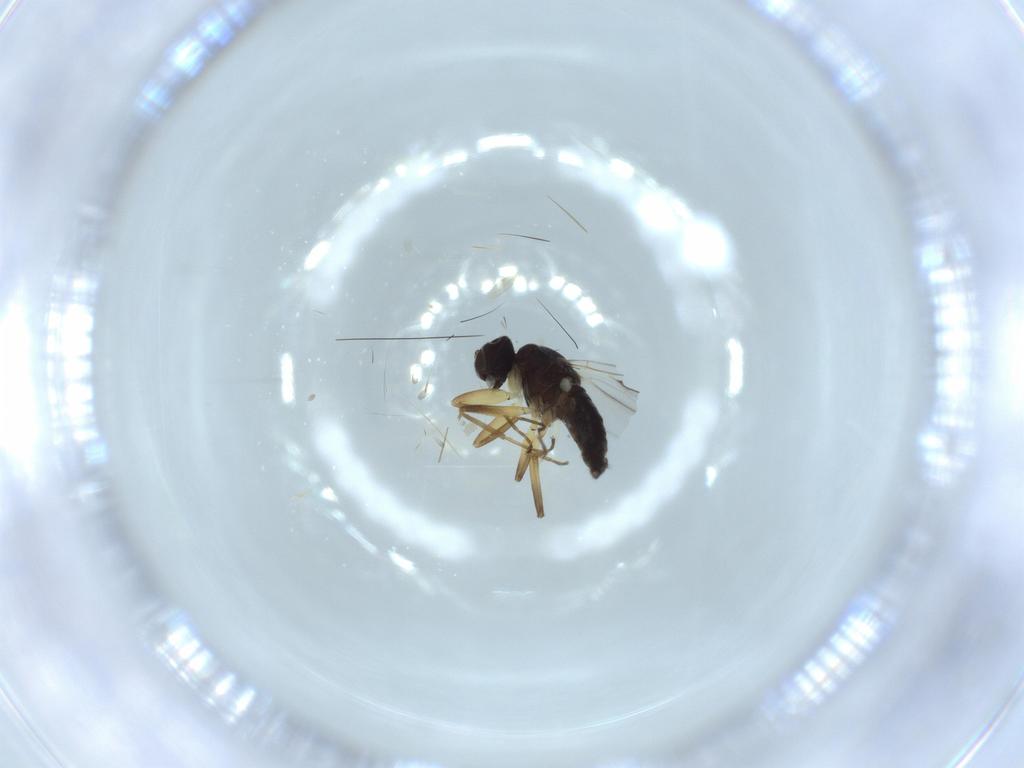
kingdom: Animalia
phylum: Arthropoda
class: Insecta
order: Diptera
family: Hybotidae
